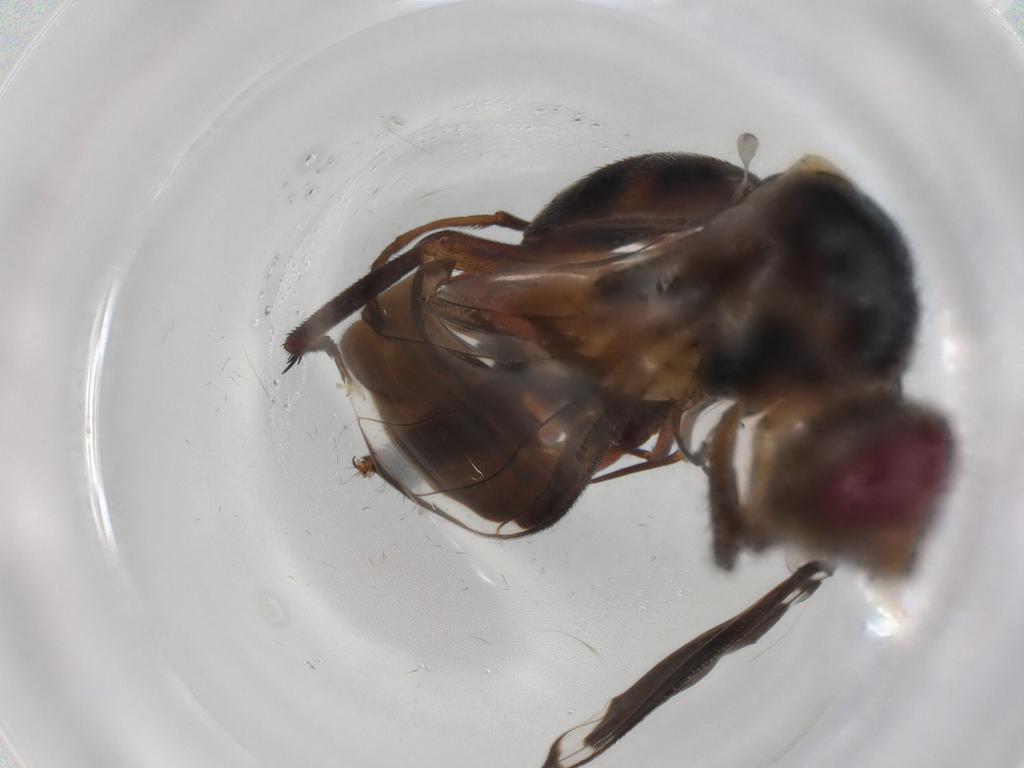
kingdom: Animalia
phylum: Arthropoda
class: Insecta
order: Diptera
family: Tephritidae
